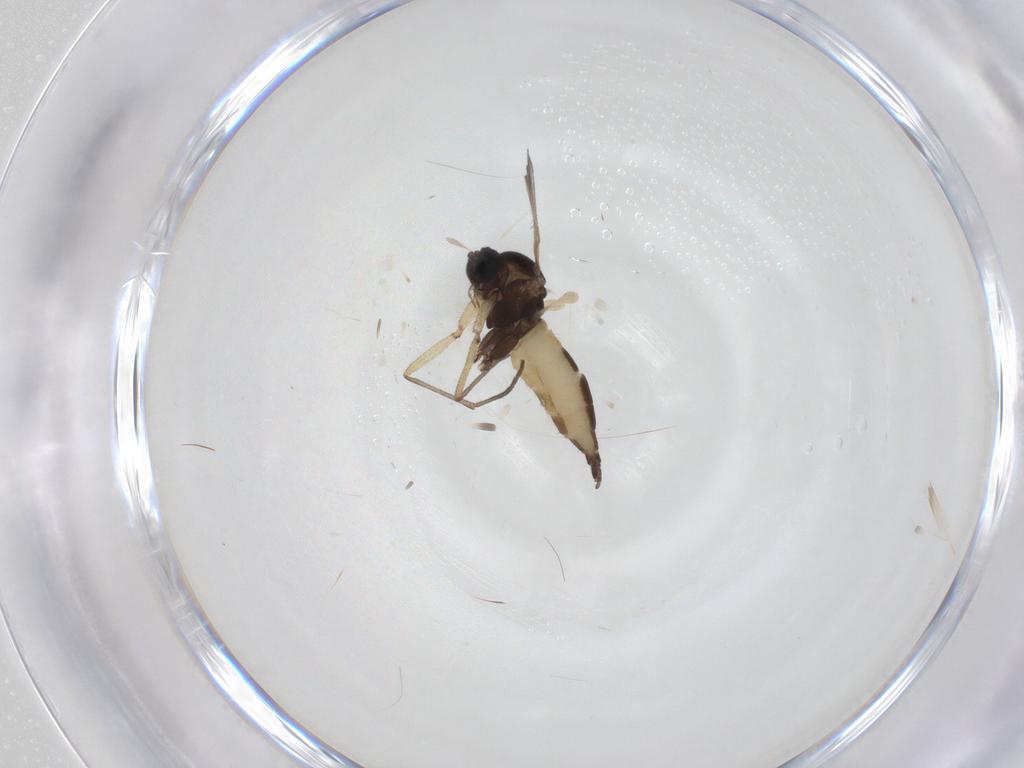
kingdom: Animalia
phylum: Arthropoda
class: Insecta
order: Diptera
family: Sciaridae
